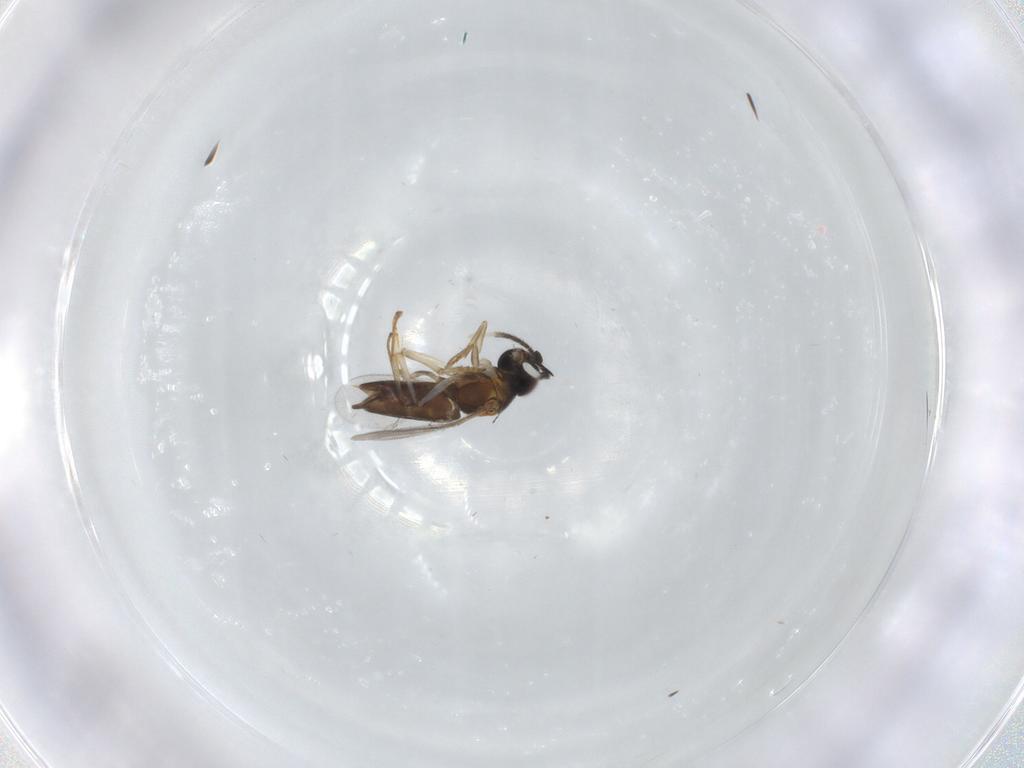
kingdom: Animalia
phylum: Arthropoda
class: Insecta
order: Hymenoptera
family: Encyrtidae
